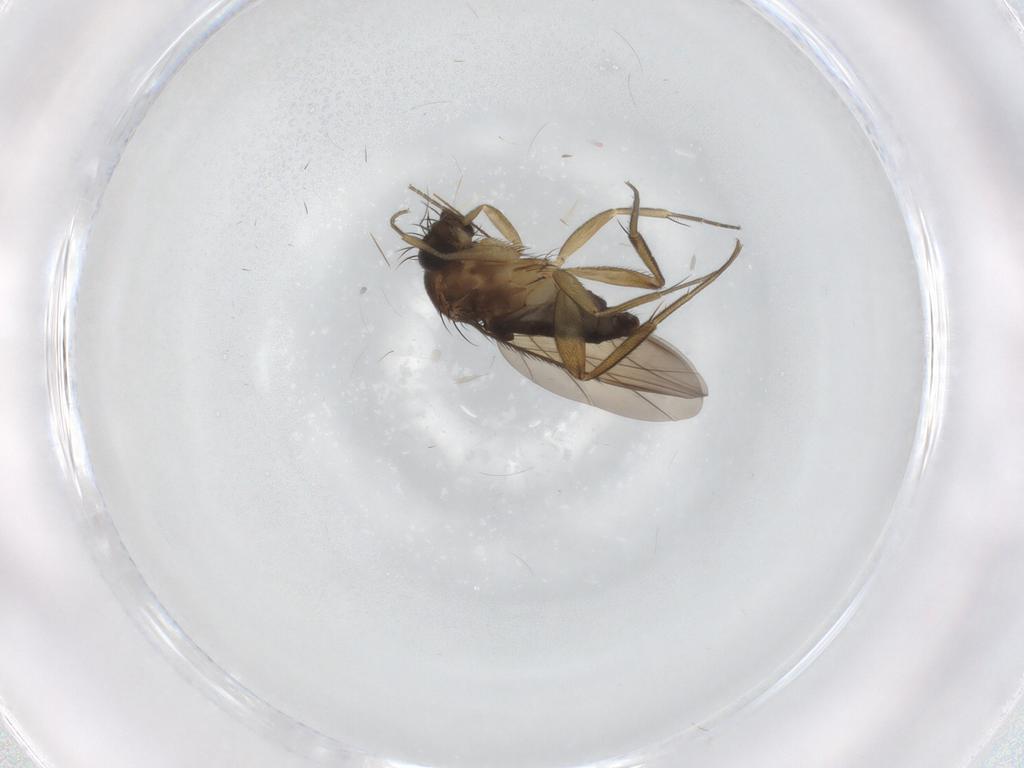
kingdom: Animalia
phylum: Arthropoda
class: Insecta
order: Diptera
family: Phoridae
